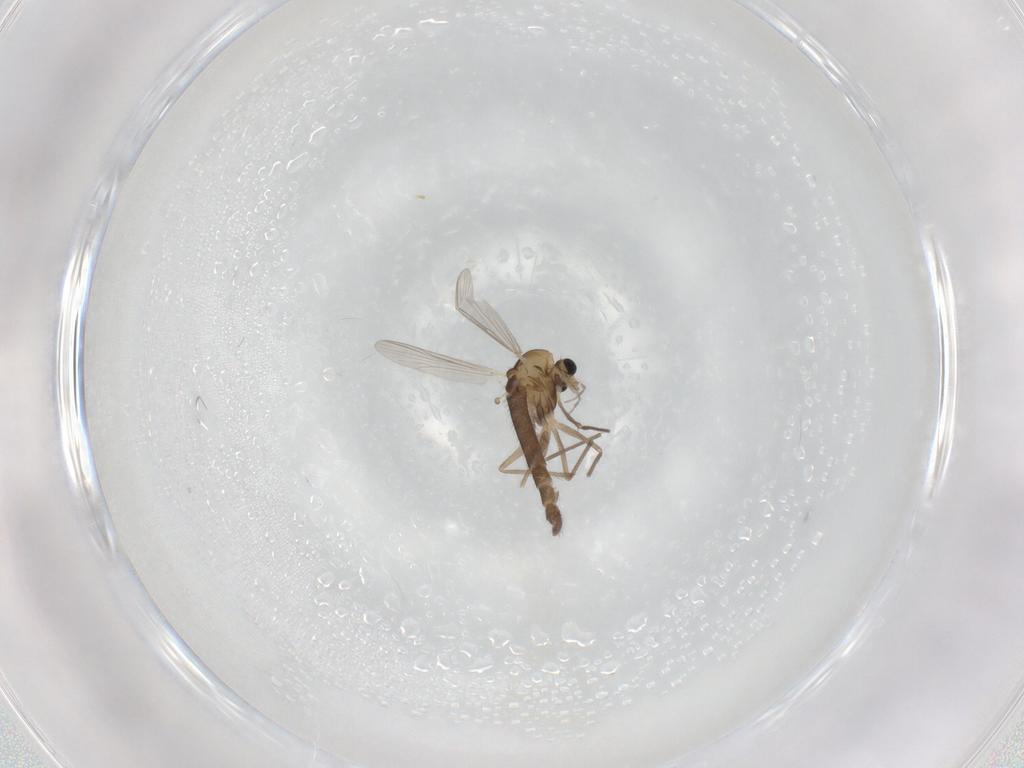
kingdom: Animalia
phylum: Arthropoda
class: Insecta
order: Diptera
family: Chironomidae
